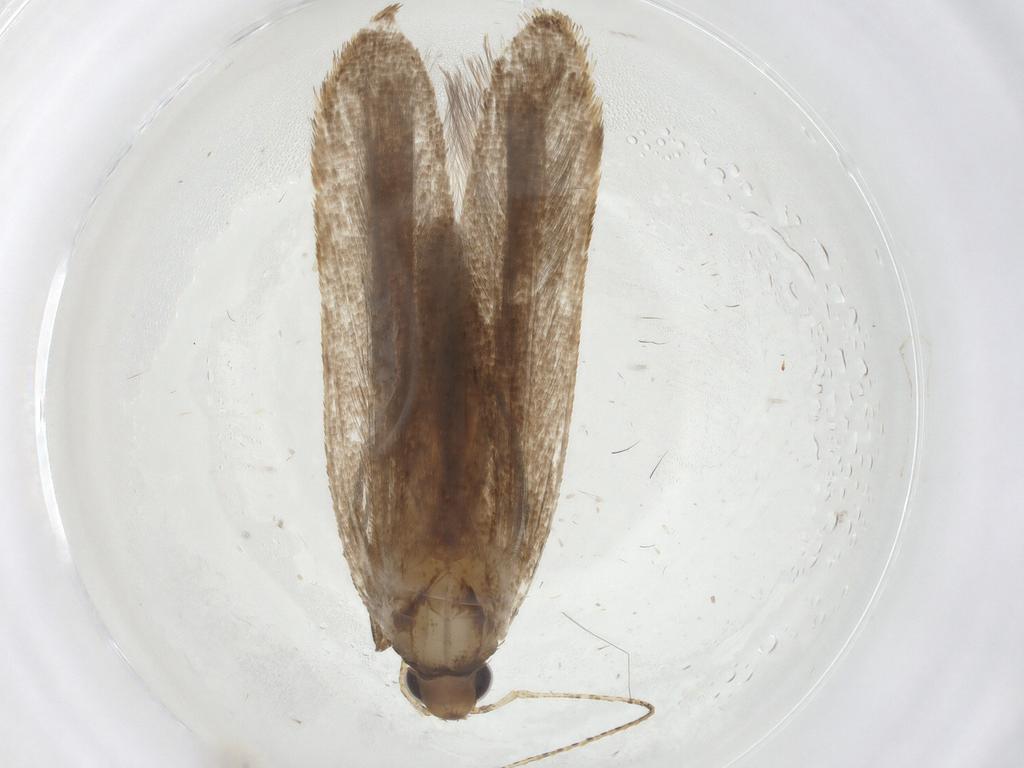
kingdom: Animalia
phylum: Arthropoda
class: Insecta
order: Lepidoptera
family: Gelechiidae
